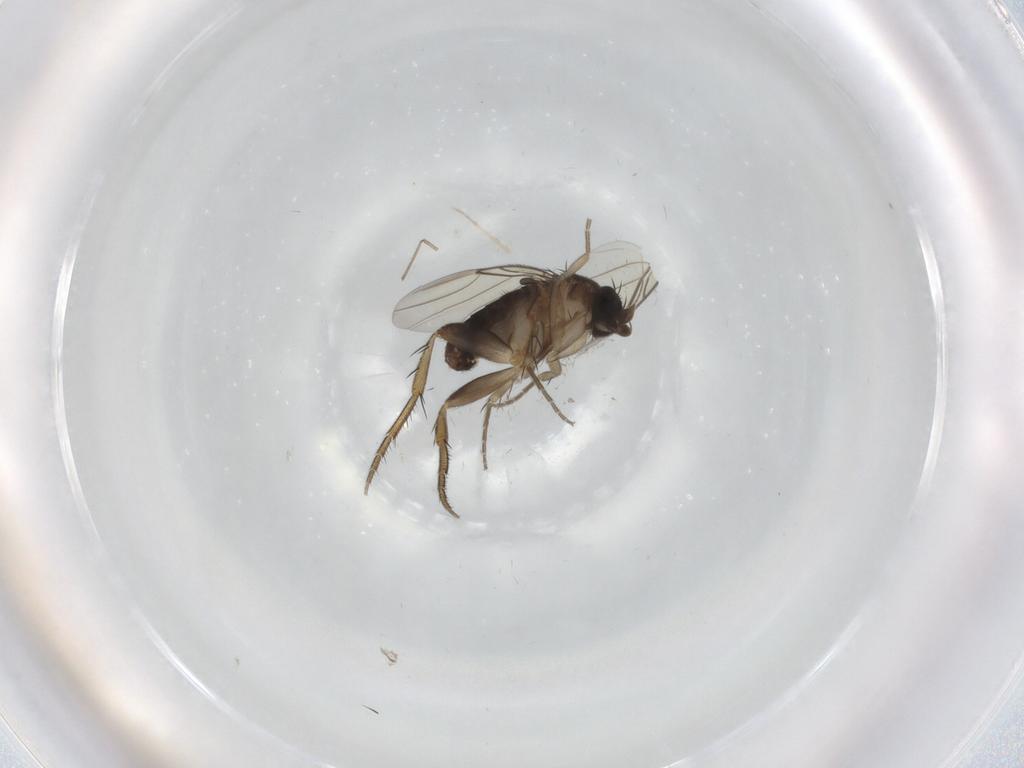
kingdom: Animalia
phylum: Arthropoda
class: Insecta
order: Diptera
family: Phoridae
